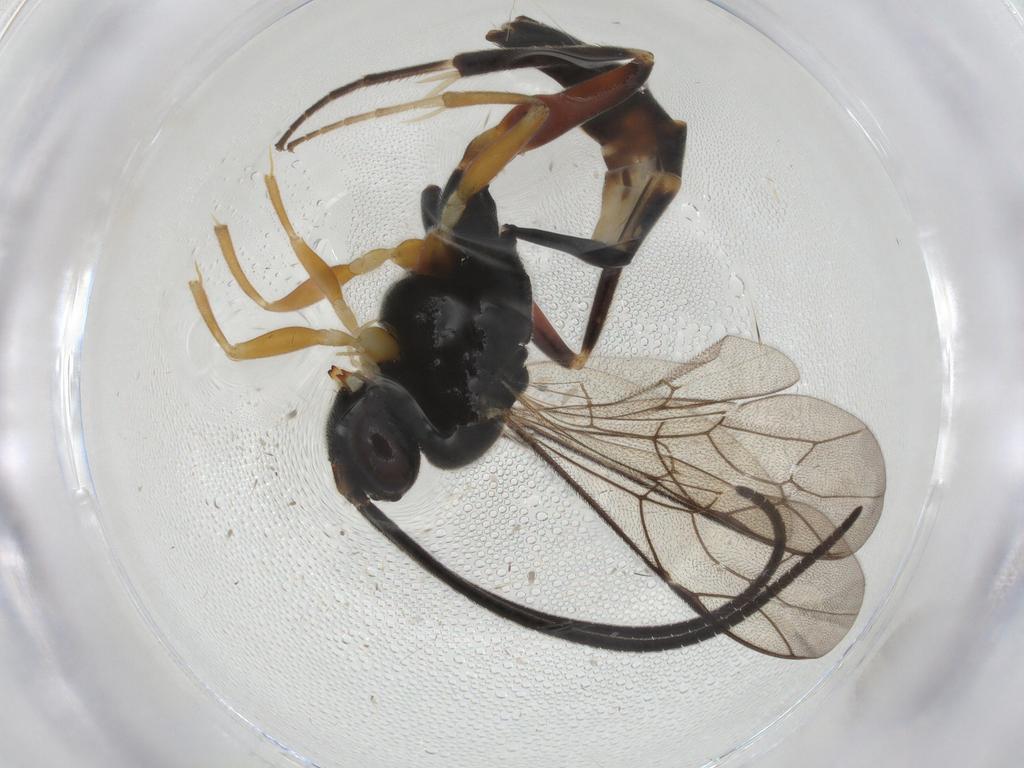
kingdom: Animalia
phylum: Arthropoda
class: Insecta
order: Hymenoptera
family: Ichneumonidae
